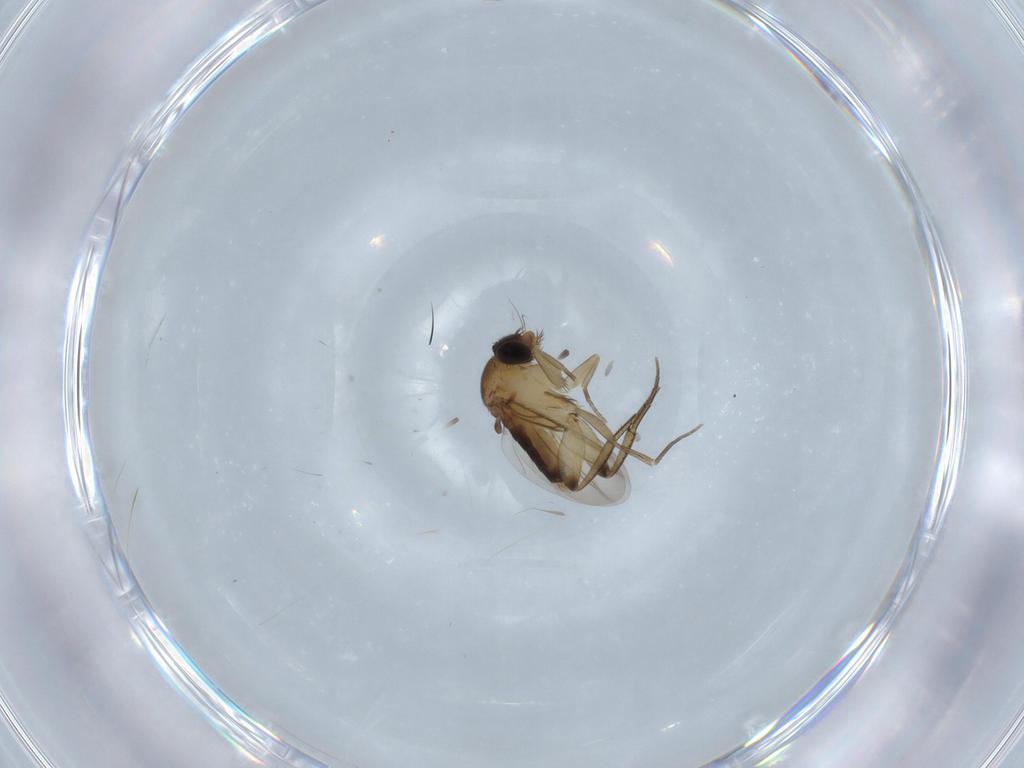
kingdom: Animalia
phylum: Arthropoda
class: Insecta
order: Diptera
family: Phoridae
